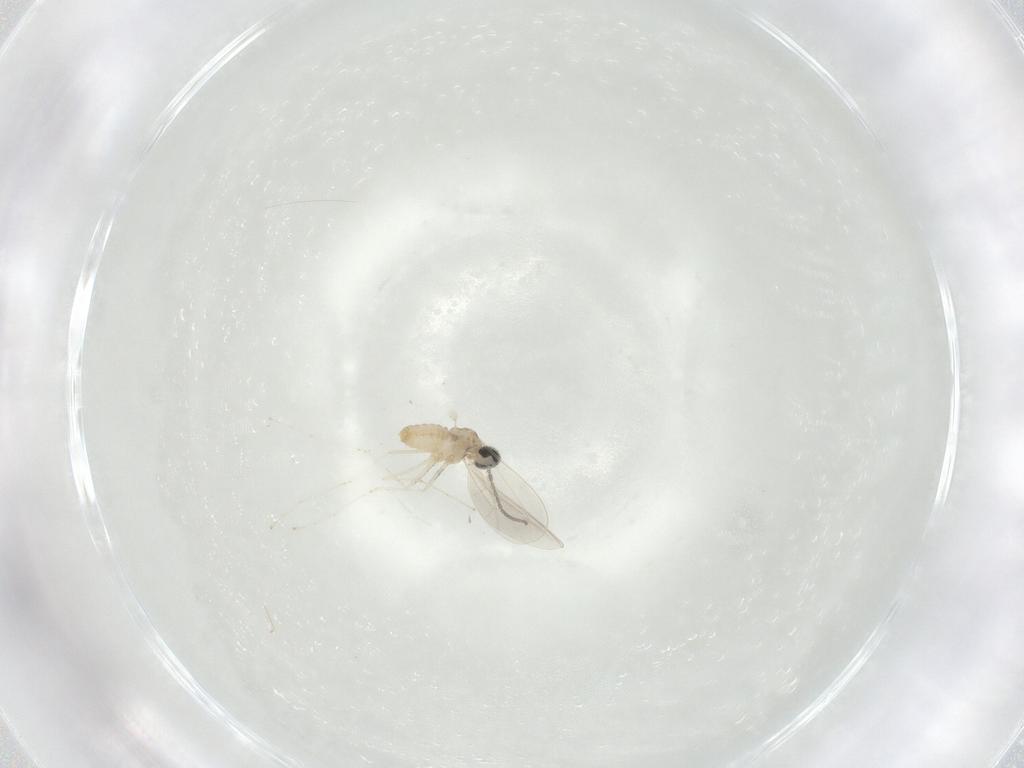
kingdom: Animalia
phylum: Arthropoda
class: Insecta
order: Diptera
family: Cecidomyiidae
